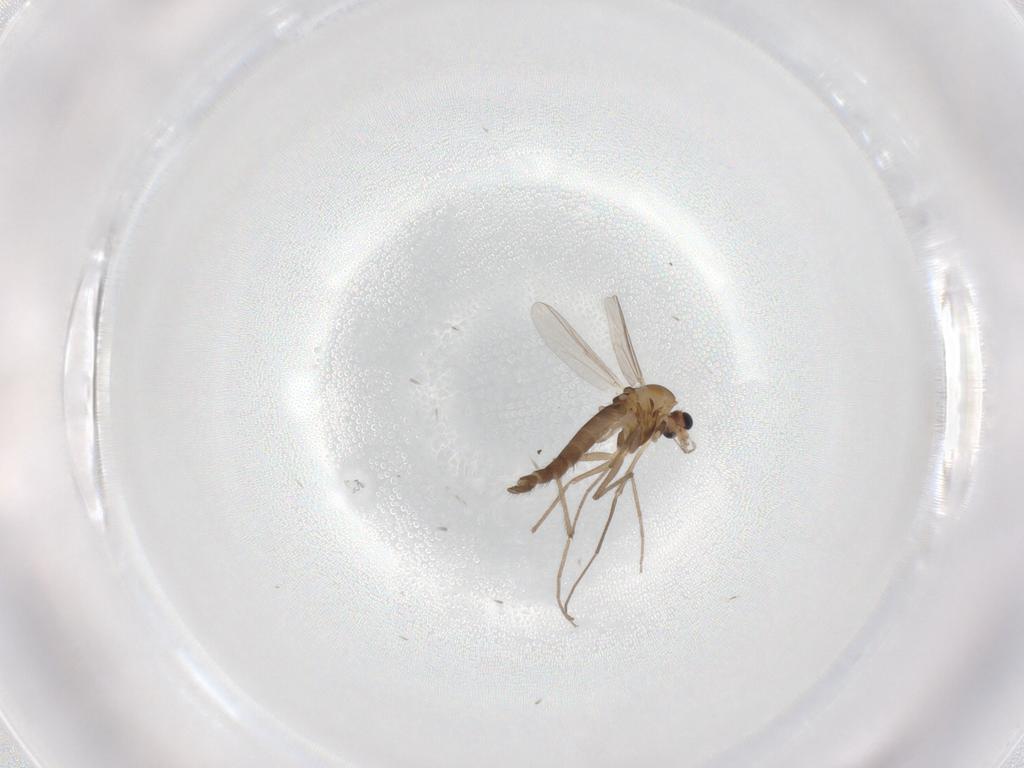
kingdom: Animalia
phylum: Arthropoda
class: Insecta
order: Diptera
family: Chironomidae
